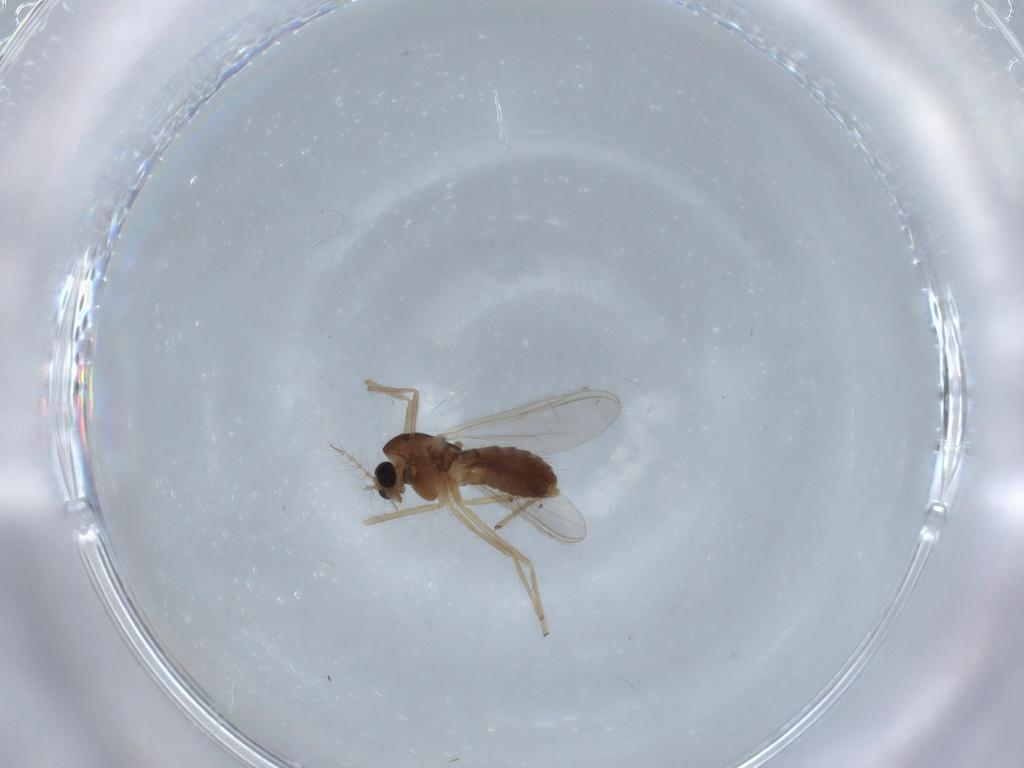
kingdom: Animalia
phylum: Arthropoda
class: Insecta
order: Diptera
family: Chironomidae
